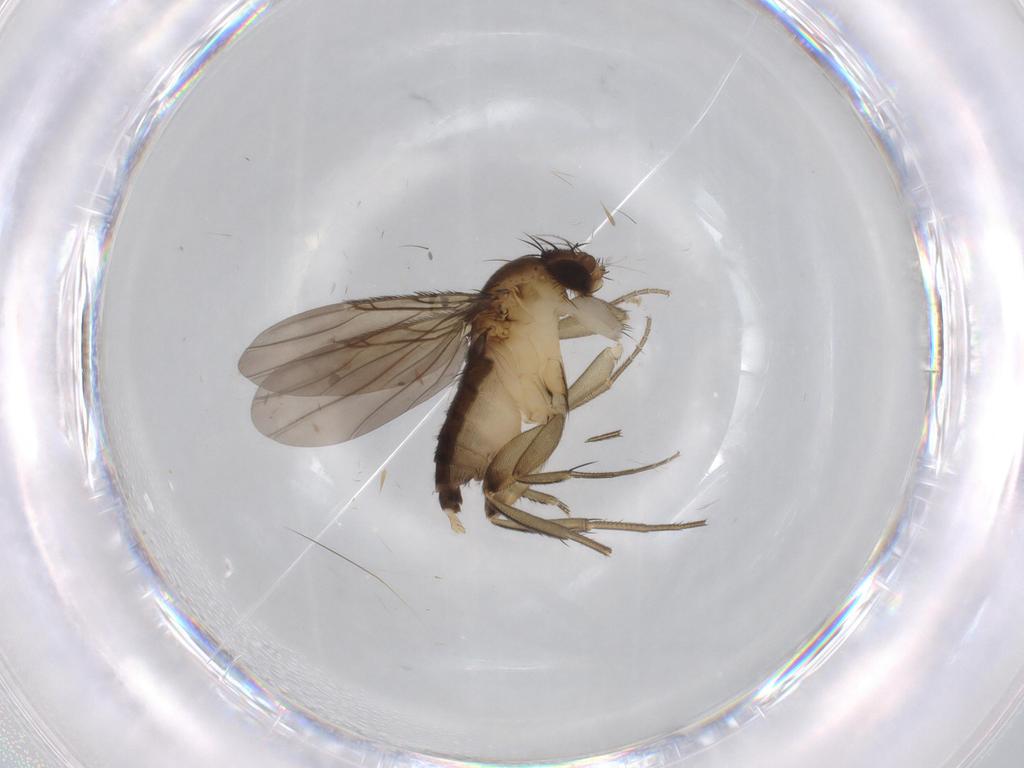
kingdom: Animalia
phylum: Arthropoda
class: Insecta
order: Diptera
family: Phoridae
